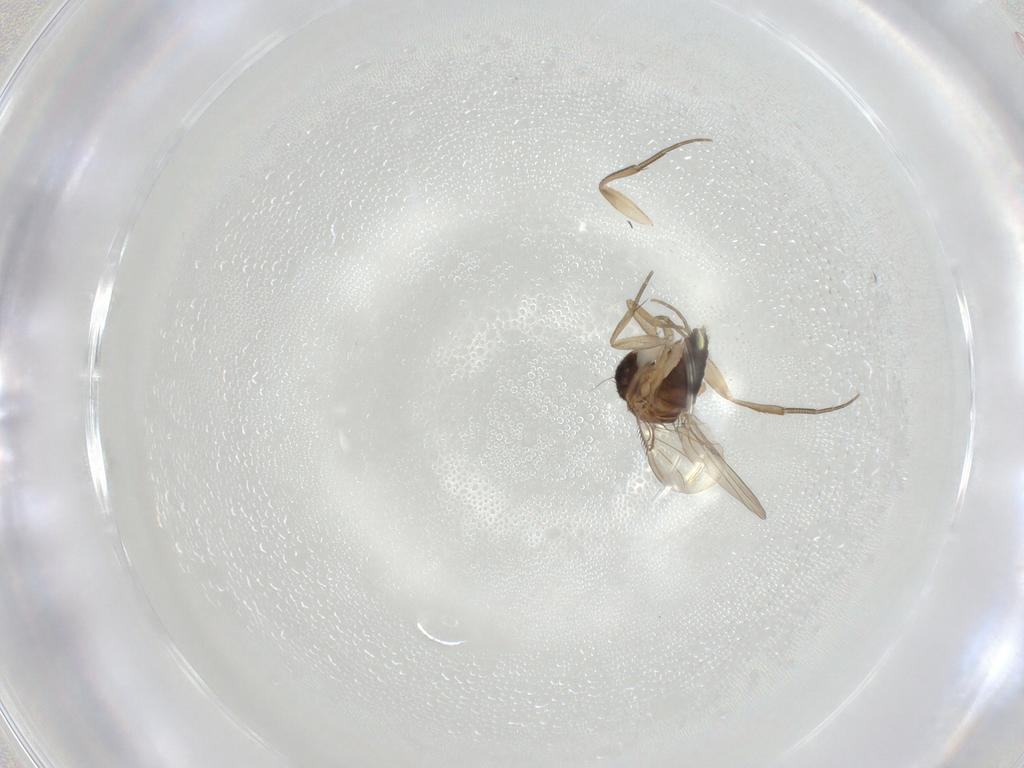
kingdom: Animalia
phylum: Arthropoda
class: Insecta
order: Diptera
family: Phoridae
